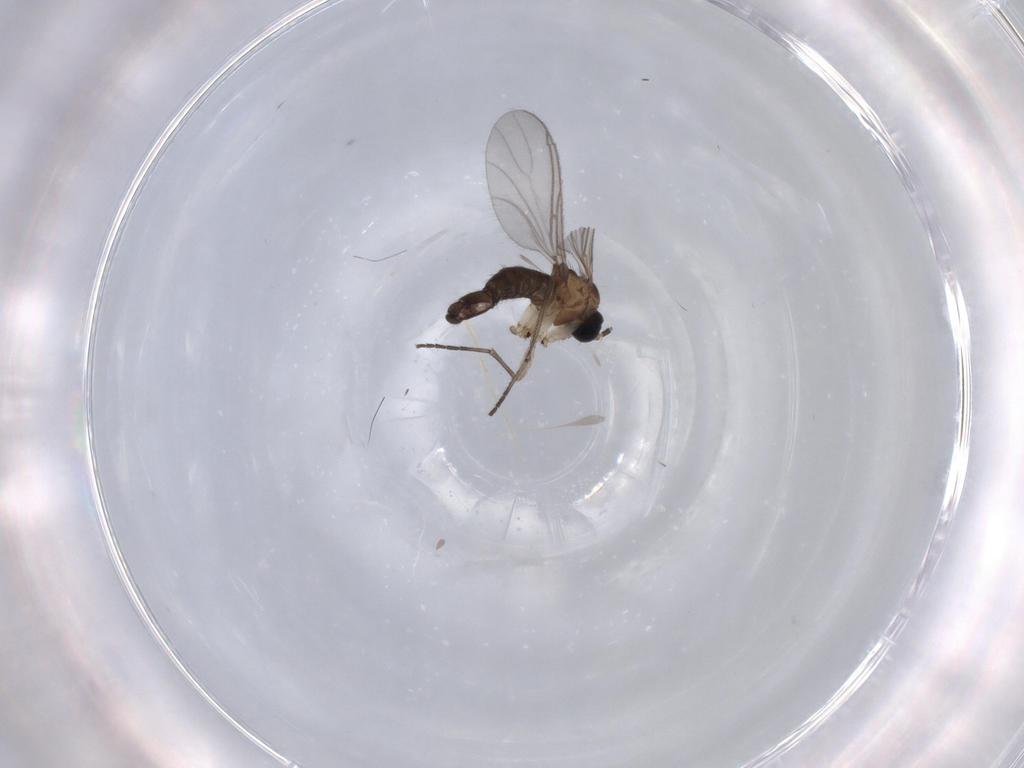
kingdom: Animalia
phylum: Arthropoda
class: Insecta
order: Diptera
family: Sciaridae
